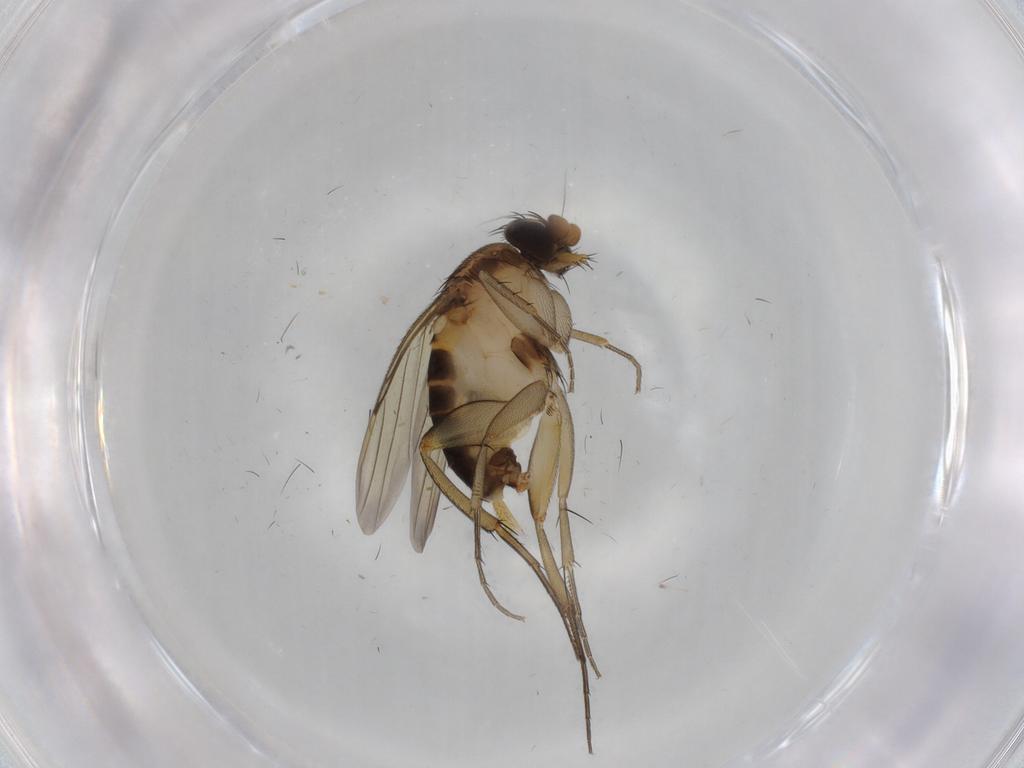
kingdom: Animalia
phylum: Arthropoda
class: Insecta
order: Diptera
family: Phoridae
